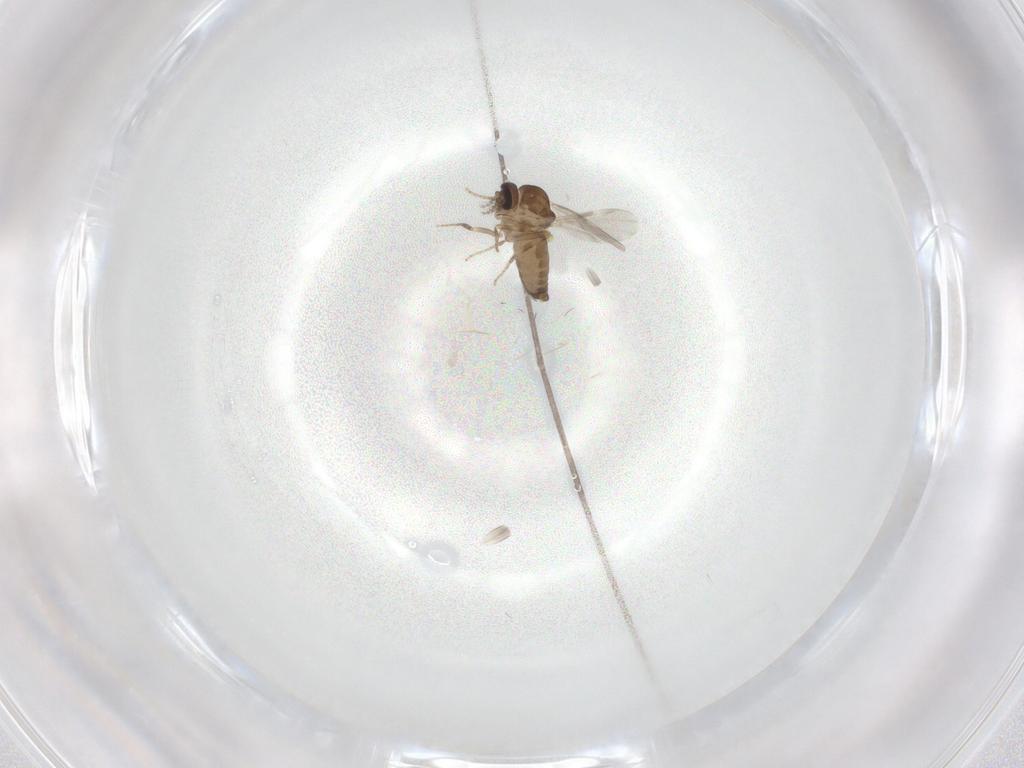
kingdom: Animalia
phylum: Arthropoda
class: Insecta
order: Diptera
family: Ceratopogonidae
